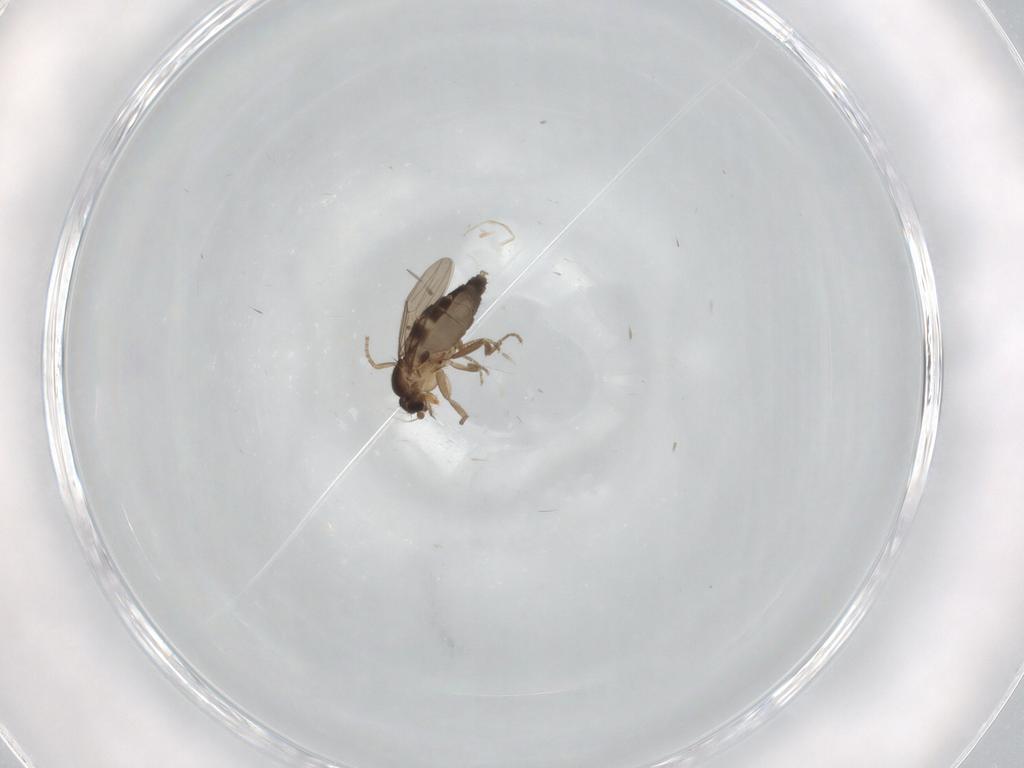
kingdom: Animalia
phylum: Arthropoda
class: Insecta
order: Diptera
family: Phoridae
